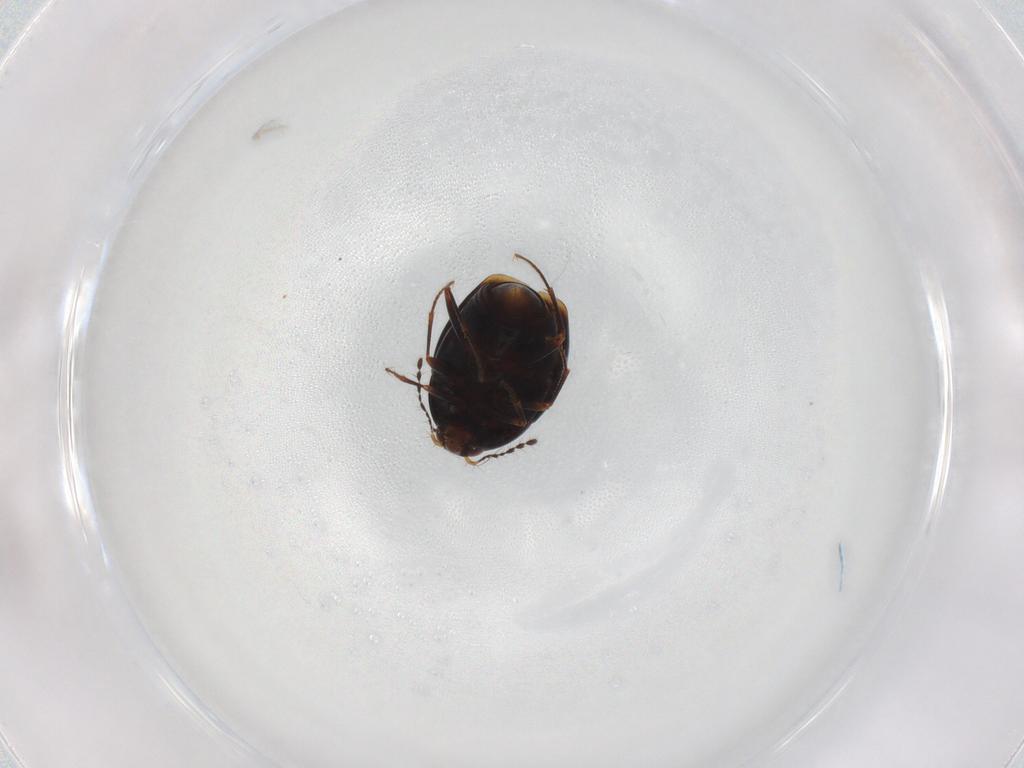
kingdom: Animalia
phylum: Arthropoda
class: Insecta
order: Coleoptera
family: Staphylinidae
